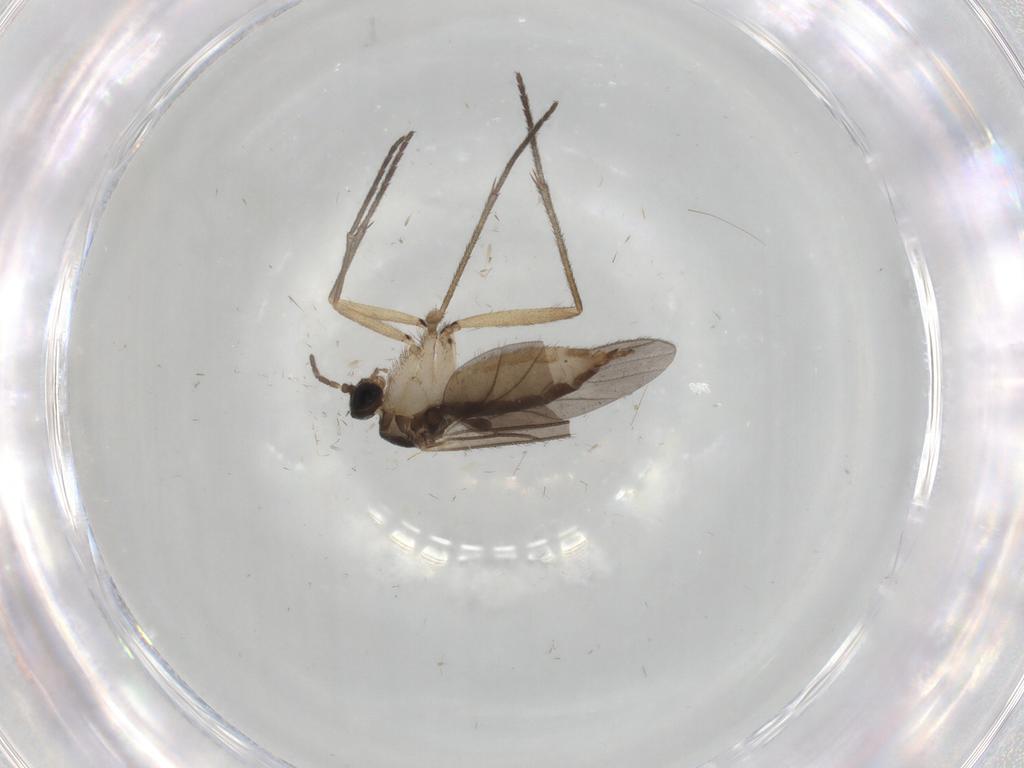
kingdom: Animalia
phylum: Arthropoda
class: Insecta
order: Diptera
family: Sciaridae
